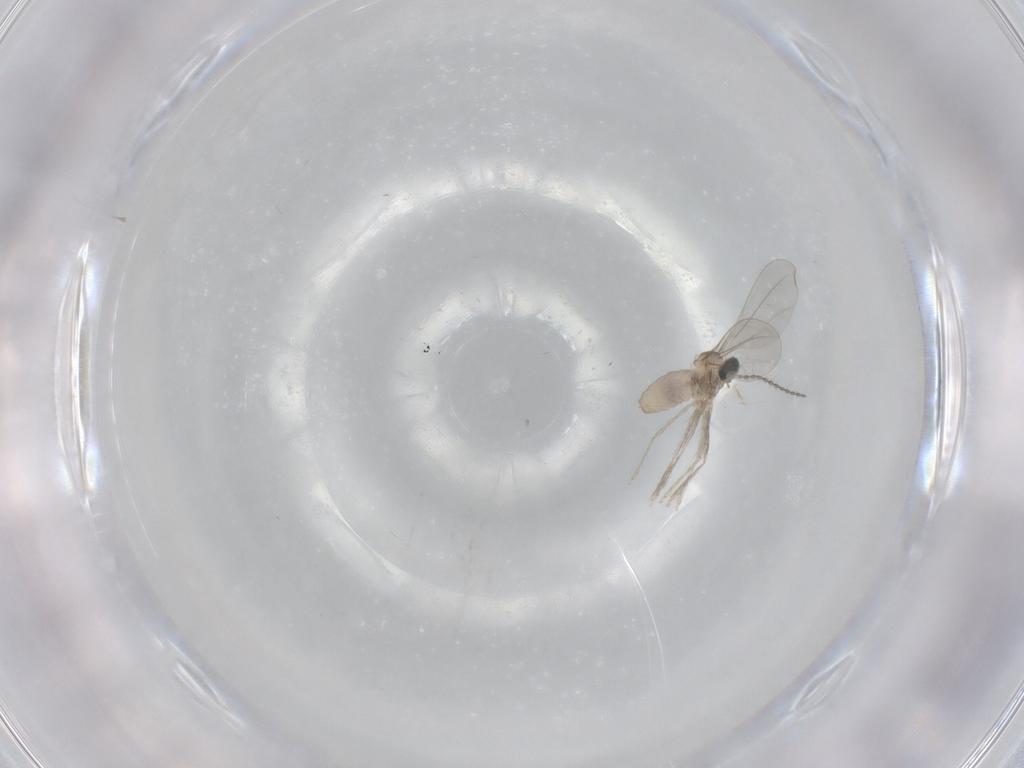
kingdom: Animalia
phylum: Arthropoda
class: Insecta
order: Diptera
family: Cecidomyiidae
